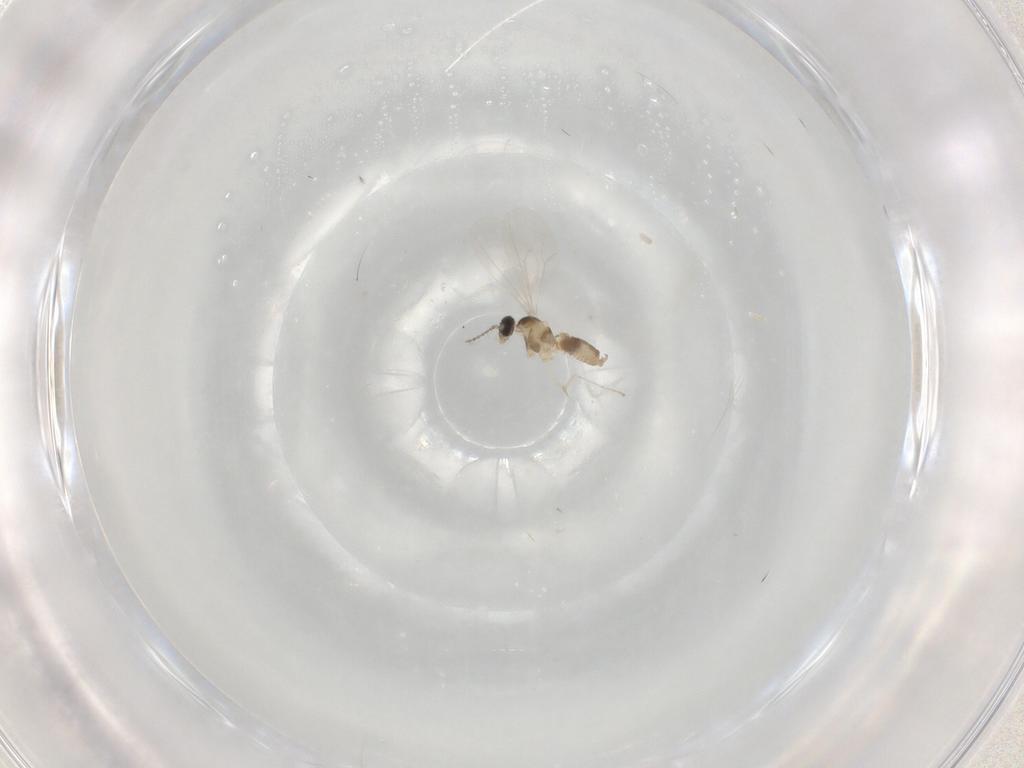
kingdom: Animalia
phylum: Arthropoda
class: Insecta
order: Diptera
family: Cecidomyiidae
